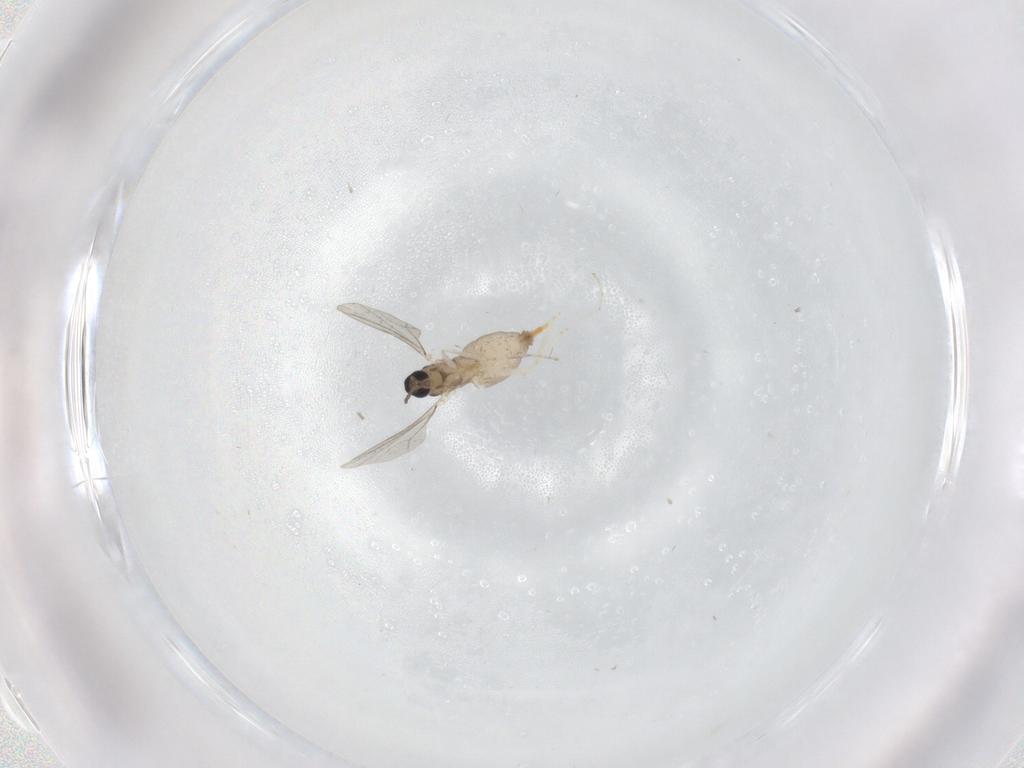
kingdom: Animalia
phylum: Arthropoda
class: Insecta
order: Diptera
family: Cecidomyiidae
